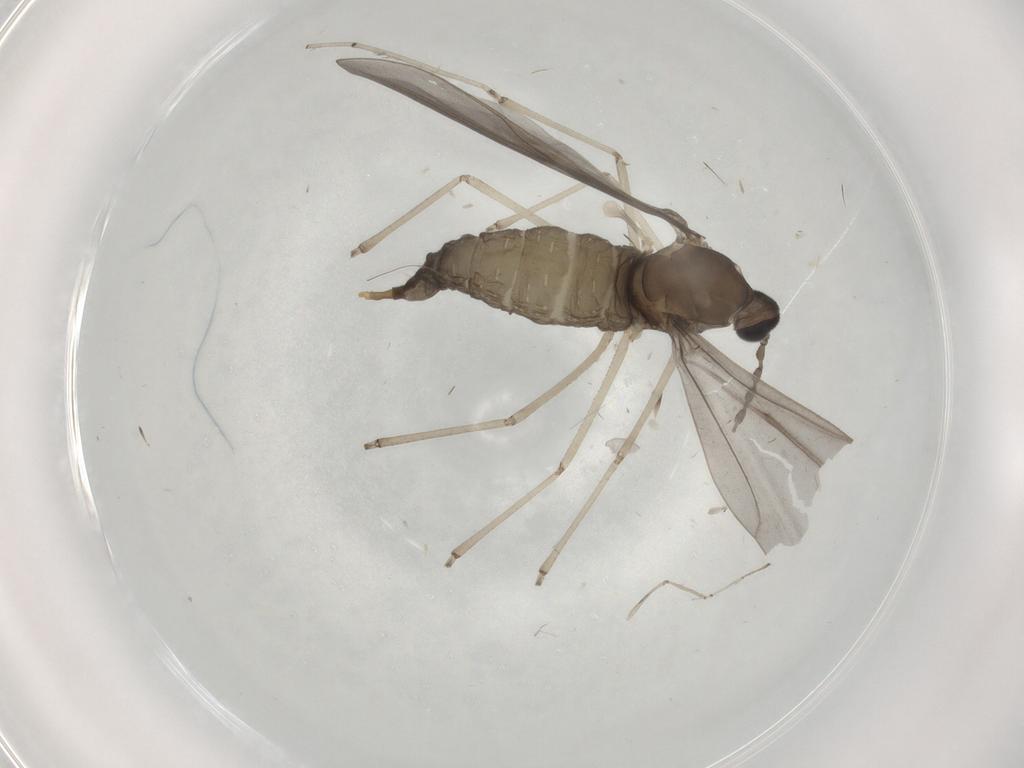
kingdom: Animalia
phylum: Arthropoda
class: Insecta
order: Diptera
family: Cecidomyiidae
